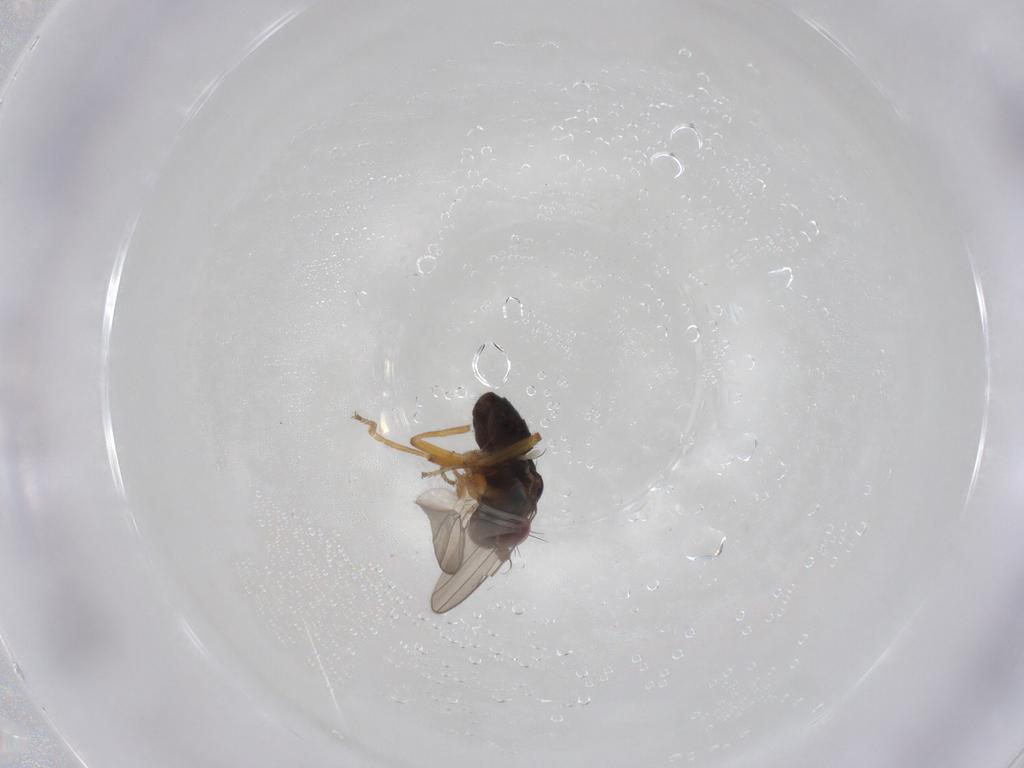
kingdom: Animalia
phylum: Arthropoda
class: Insecta
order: Diptera
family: Ephydridae
